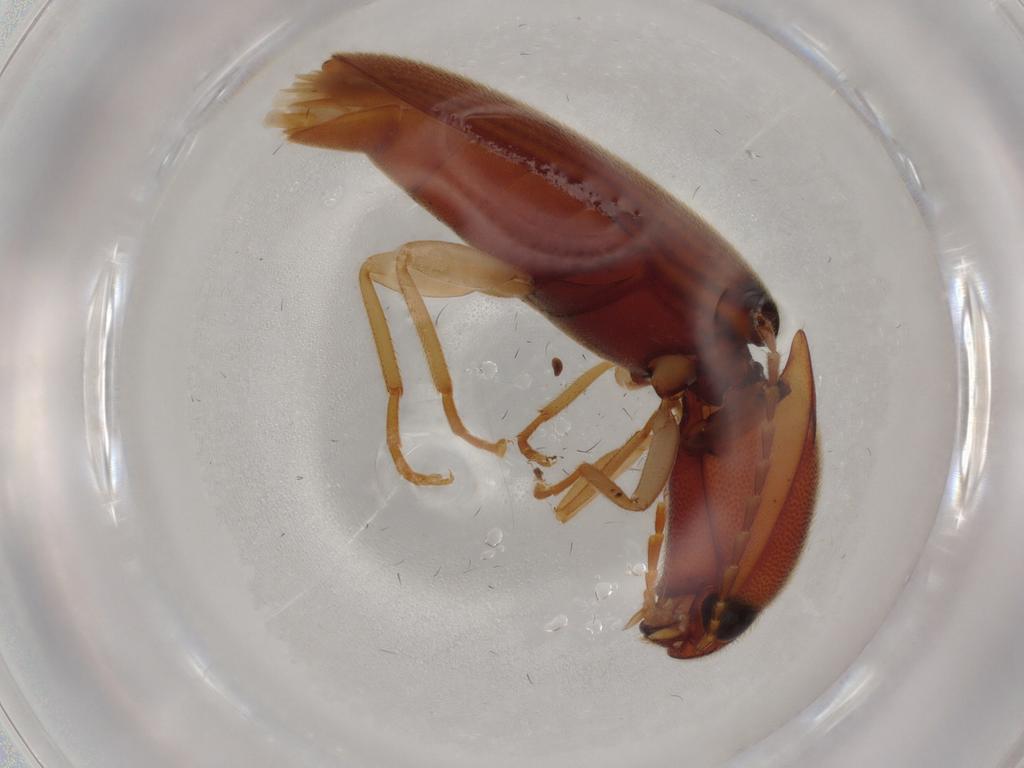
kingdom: Animalia
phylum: Arthropoda
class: Insecta
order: Coleoptera
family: Elateridae
